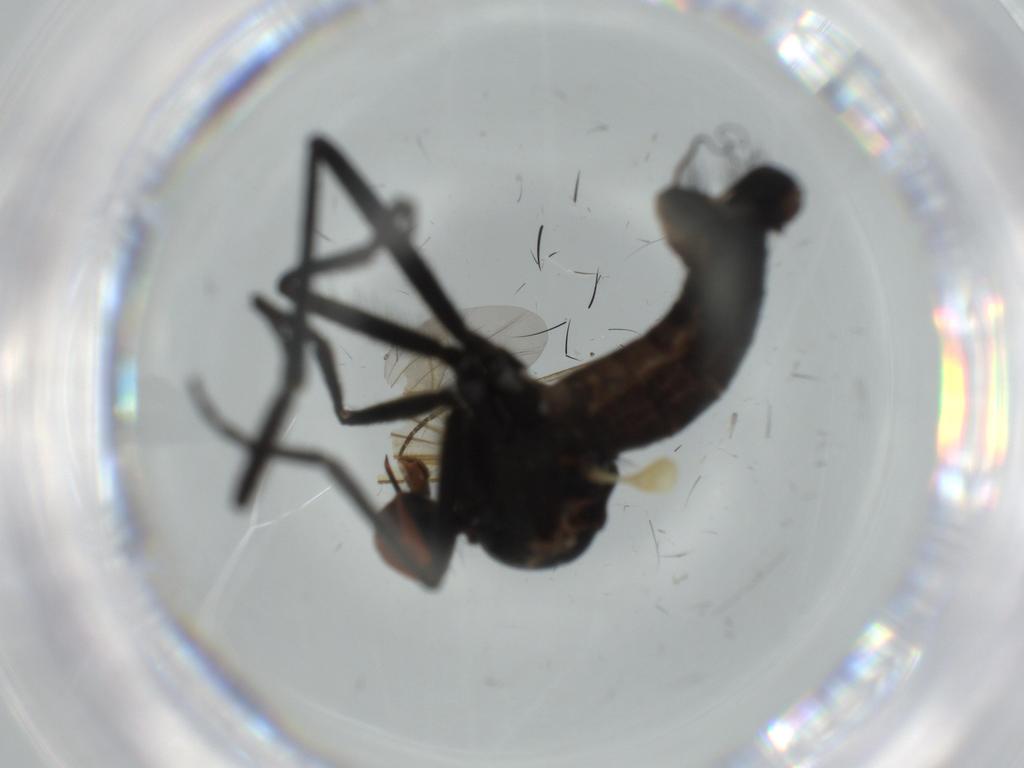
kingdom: Animalia
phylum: Arthropoda
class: Insecta
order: Diptera
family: Empididae
